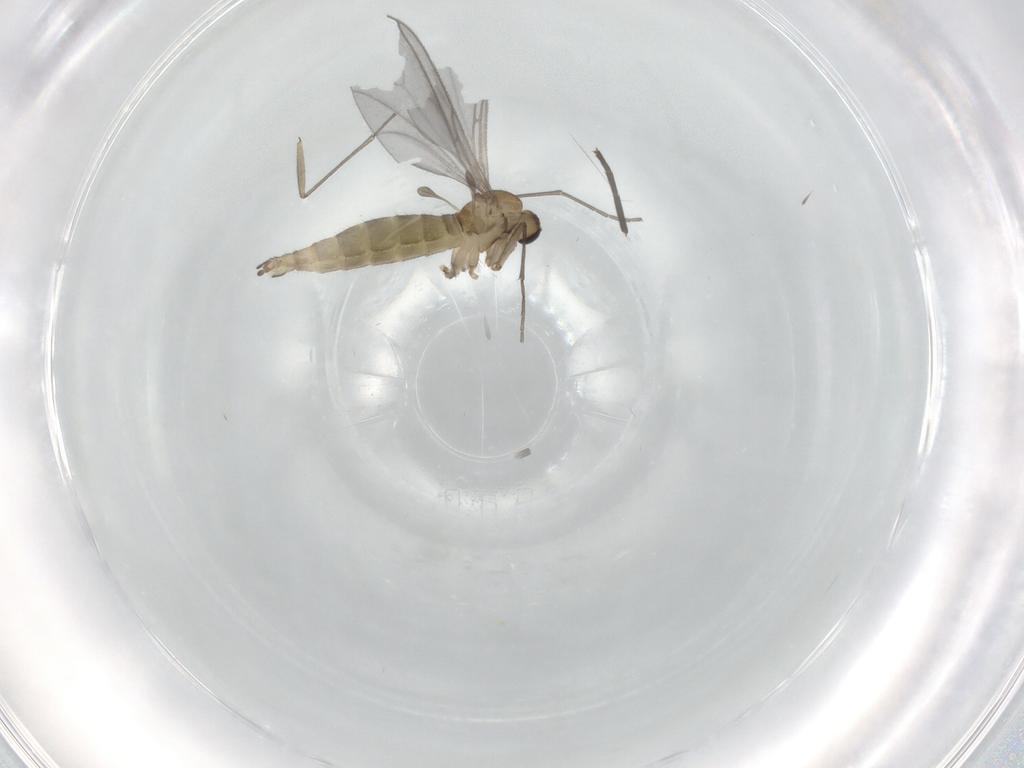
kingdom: Animalia
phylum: Arthropoda
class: Insecta
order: Diptera
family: Sciaridae
